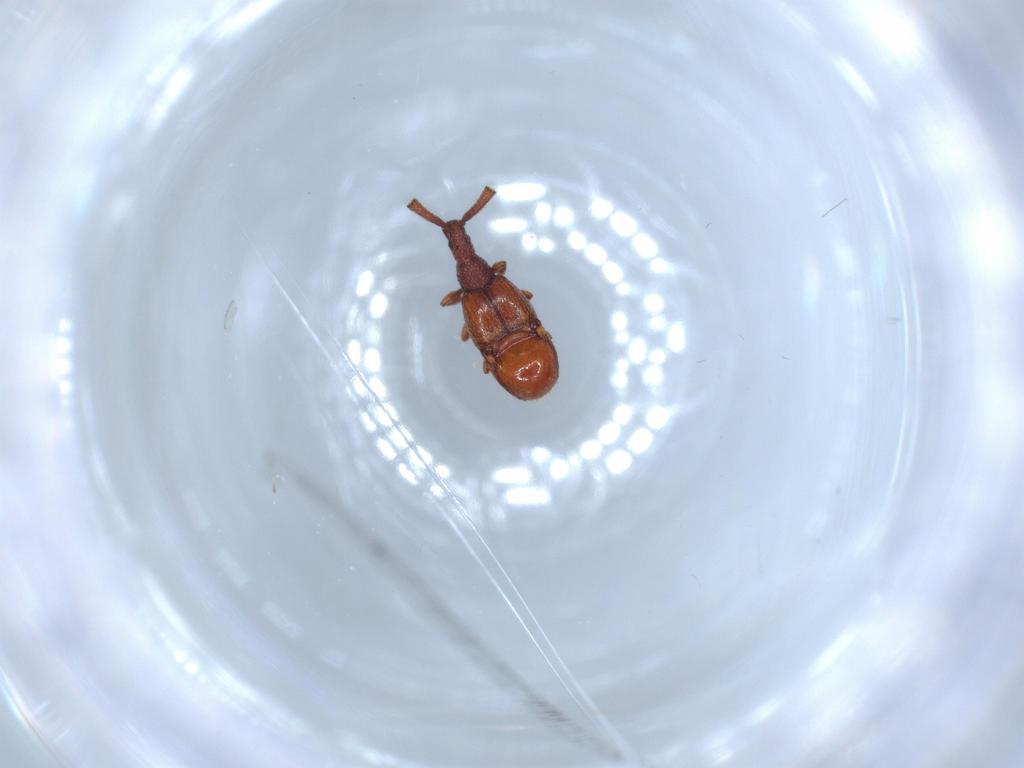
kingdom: Animalia
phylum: Arthropoda
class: Insecta
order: Coleoptera
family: Staphylinidae
